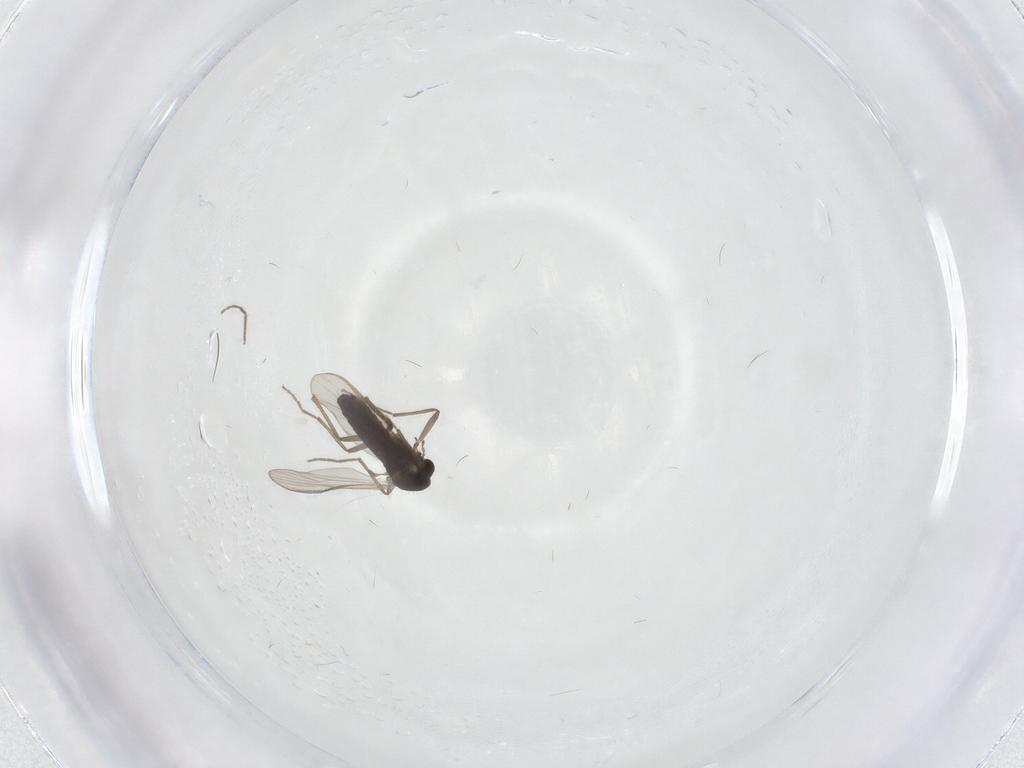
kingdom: Animalia
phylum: Arthropoda
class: Insecta
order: Diptera
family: Chironomidae
